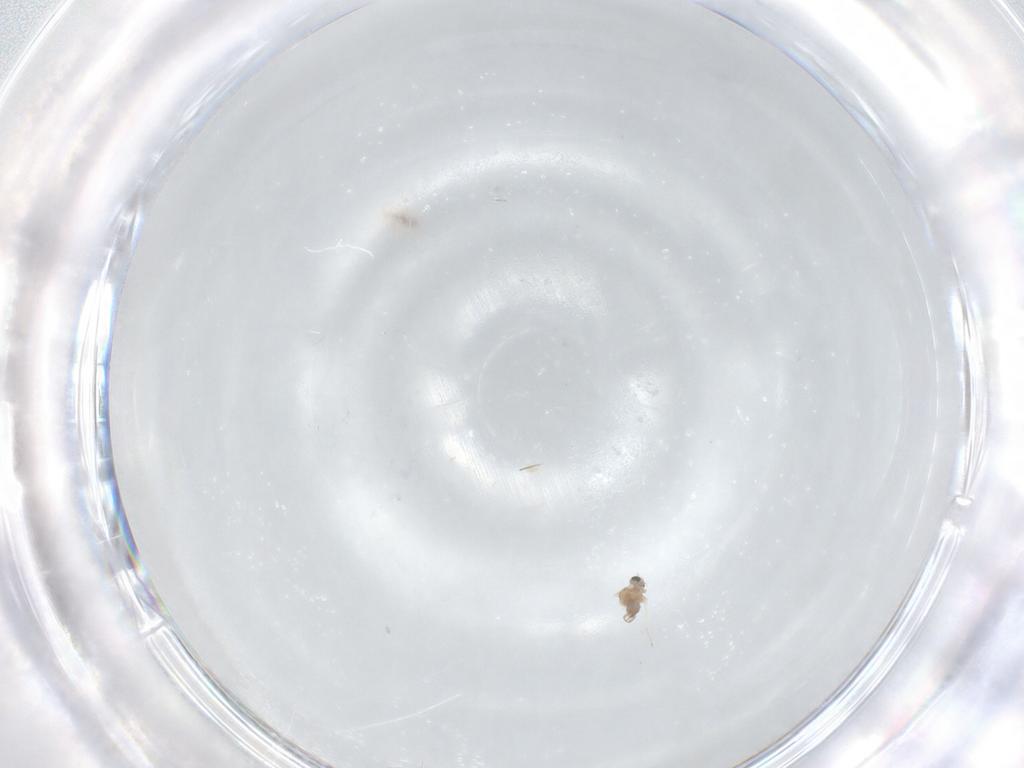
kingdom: Animalia
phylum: Arthropoda
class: Insecta
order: Diptera
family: Cecidomyiidae
